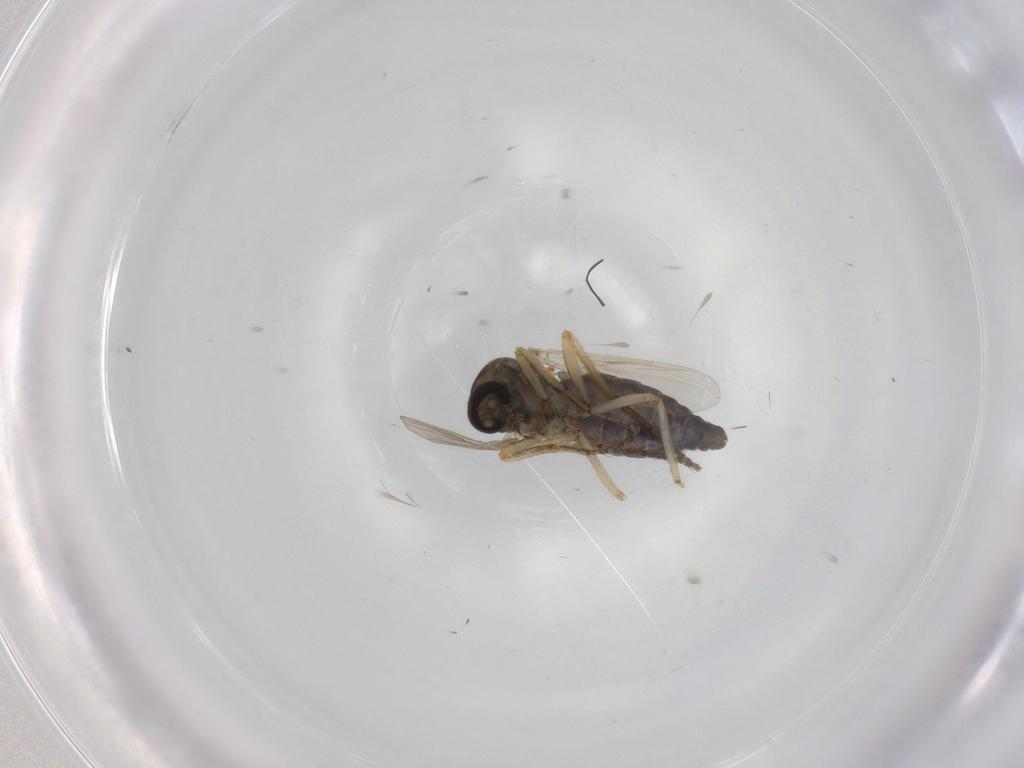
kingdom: Animalia
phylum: Arthropoda
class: Insecta
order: Diptera
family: Ceratopogonidae
